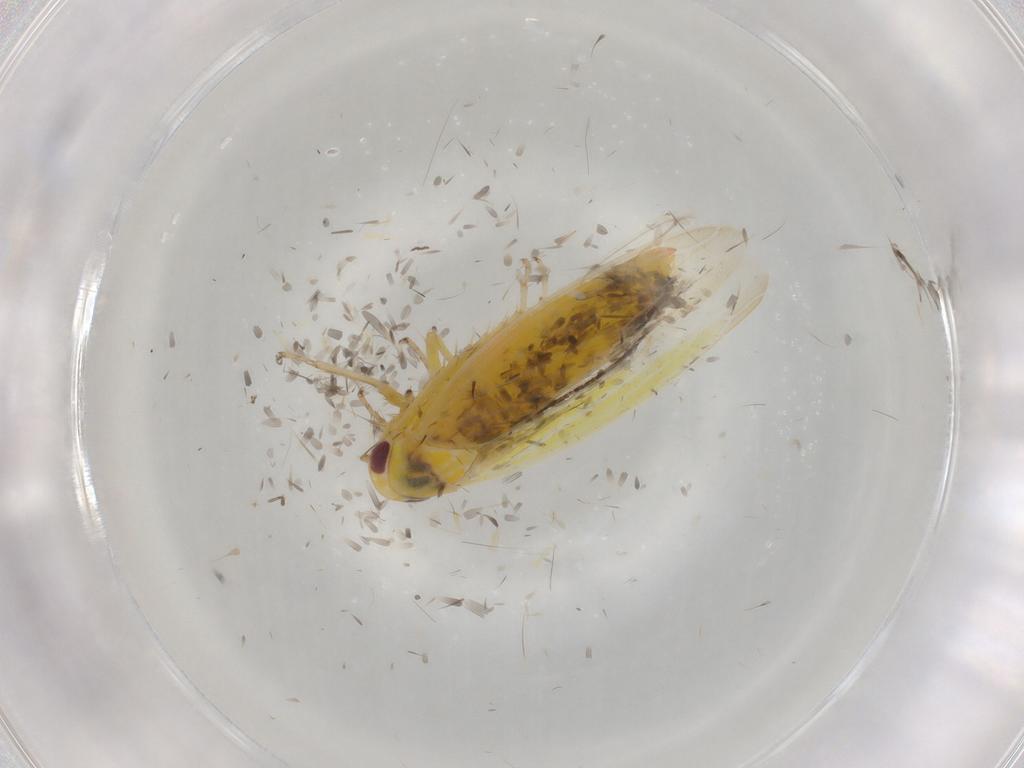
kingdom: Animalia
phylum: Arthropoda
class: Insecta
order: Hemiptera
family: Cicadellidae
